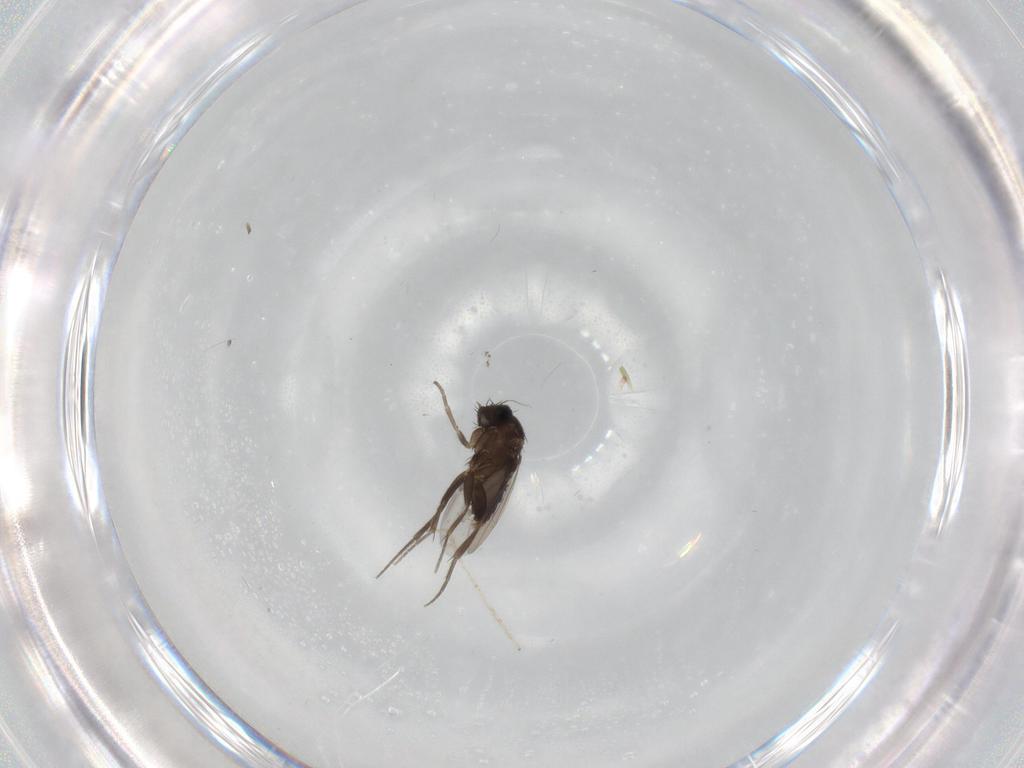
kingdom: Animalia
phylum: Arthropoda
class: Insecta
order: Diptera
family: Phoridae
